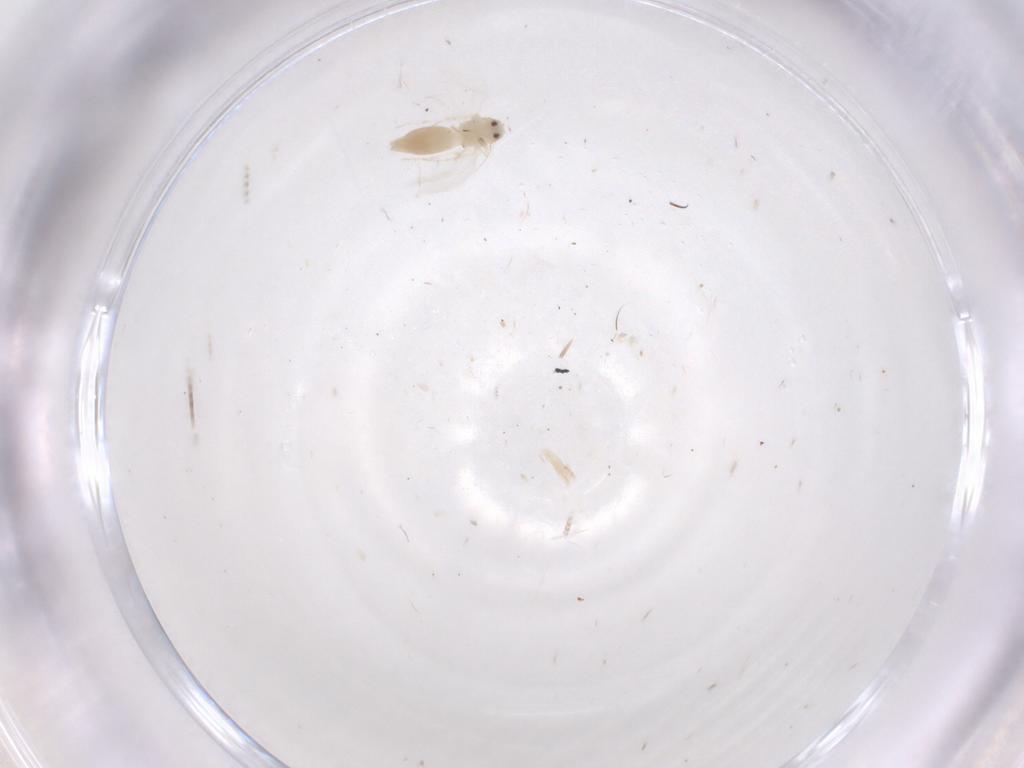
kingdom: Animalia
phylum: Arthropoda
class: Insecta
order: Hemiptera
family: Aleyrodidae
